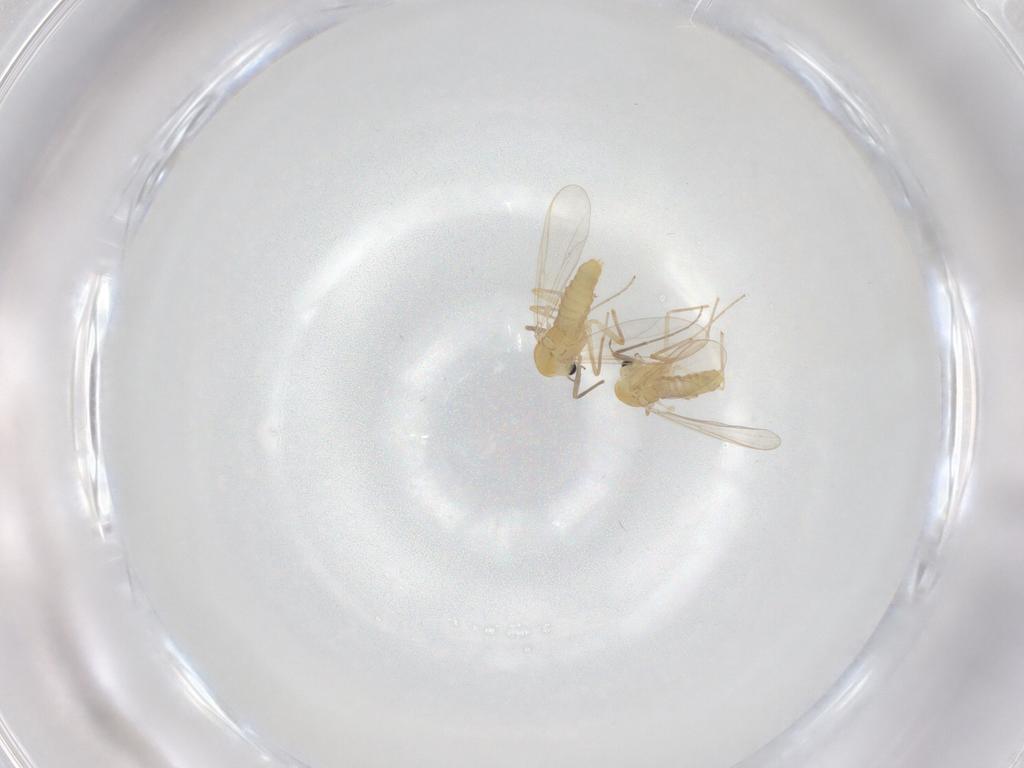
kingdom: Animalia
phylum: Arthropoda
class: Insecta
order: Diptera
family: Chironomidae
